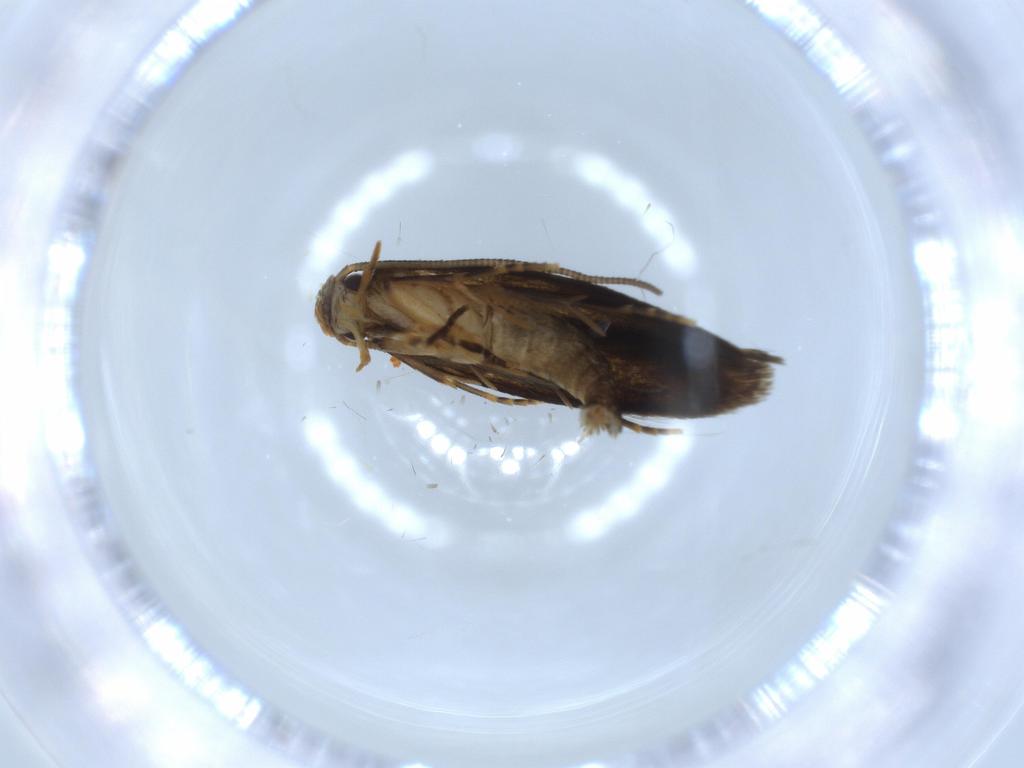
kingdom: Animalia
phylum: Arthropoda
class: Insecta
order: Lepidoptera
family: Tineidae
